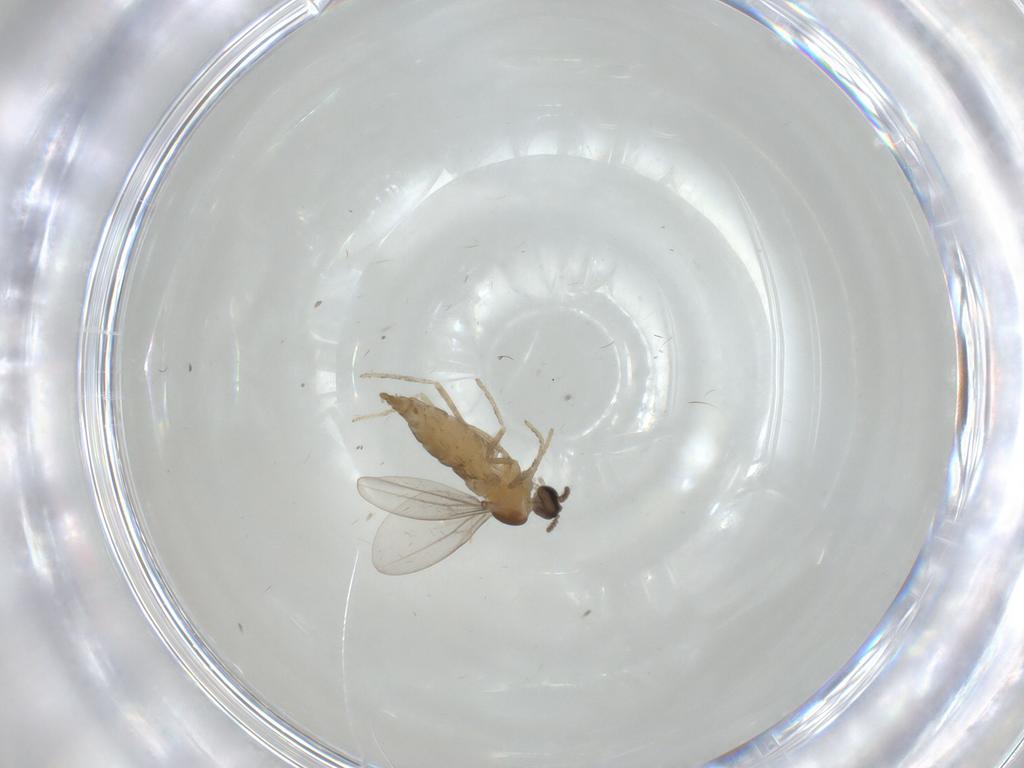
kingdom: Animalia
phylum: Arthropoda
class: Insecta
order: Diptera
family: Cecidomyiidae
